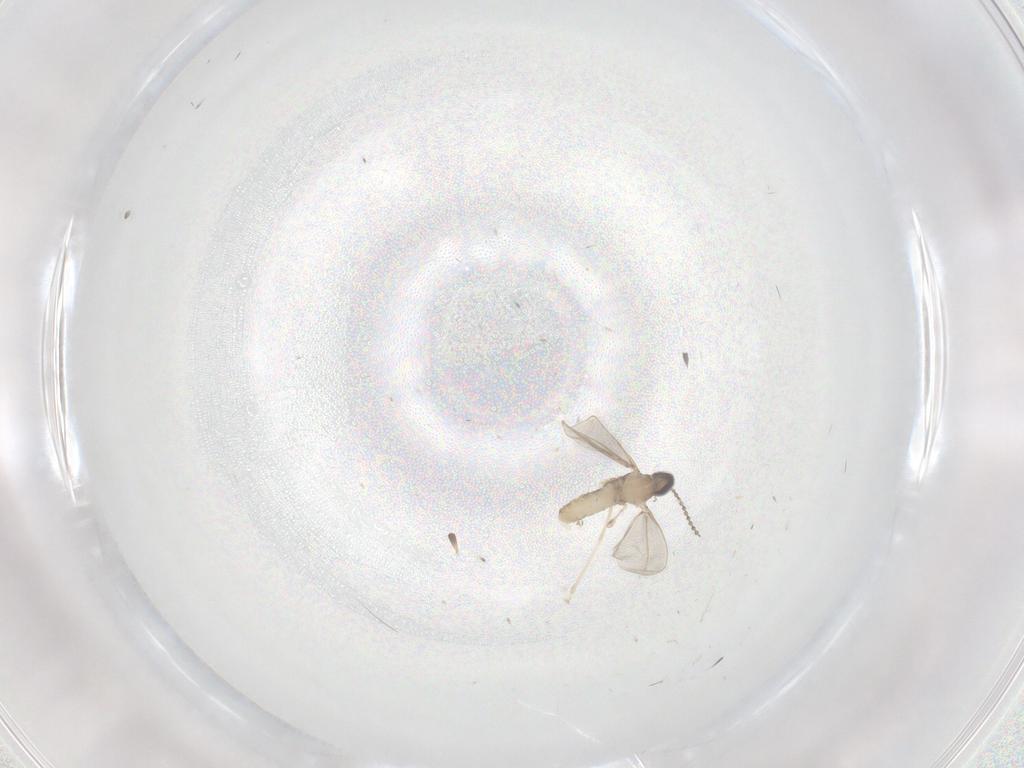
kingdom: Animalia
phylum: Arthropoda
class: Insecta
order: Diptera
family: Cecidomyiidae
